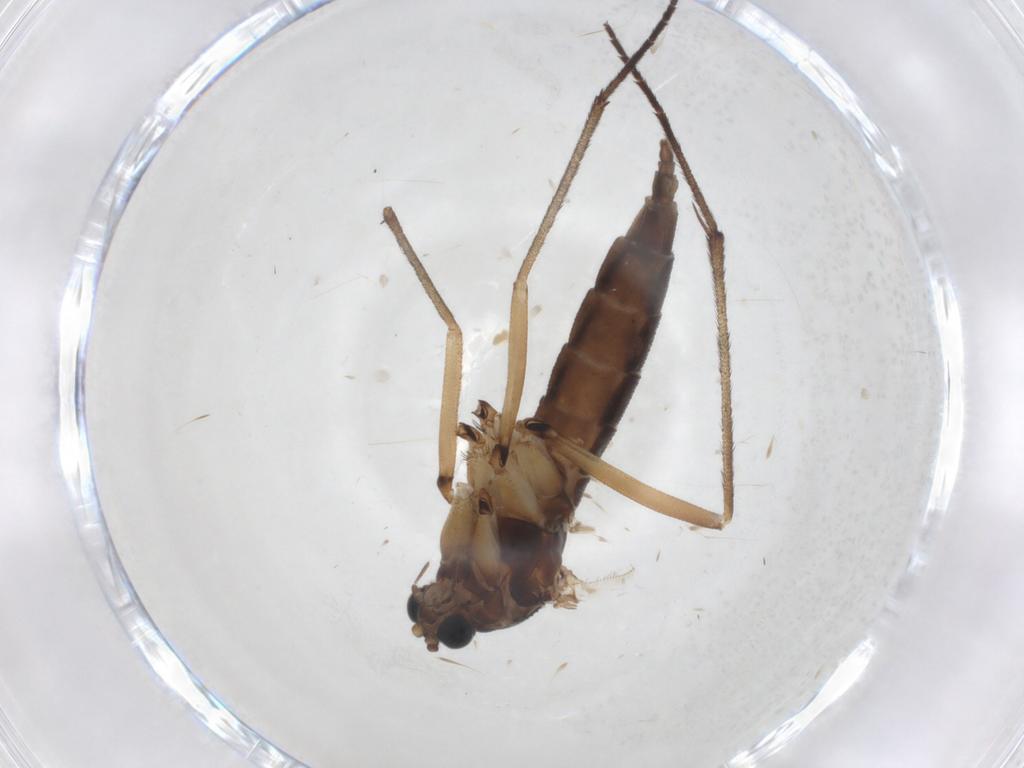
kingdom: Animalia
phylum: Arthropoda
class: Insecta
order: Diptera
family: Sciaridae
